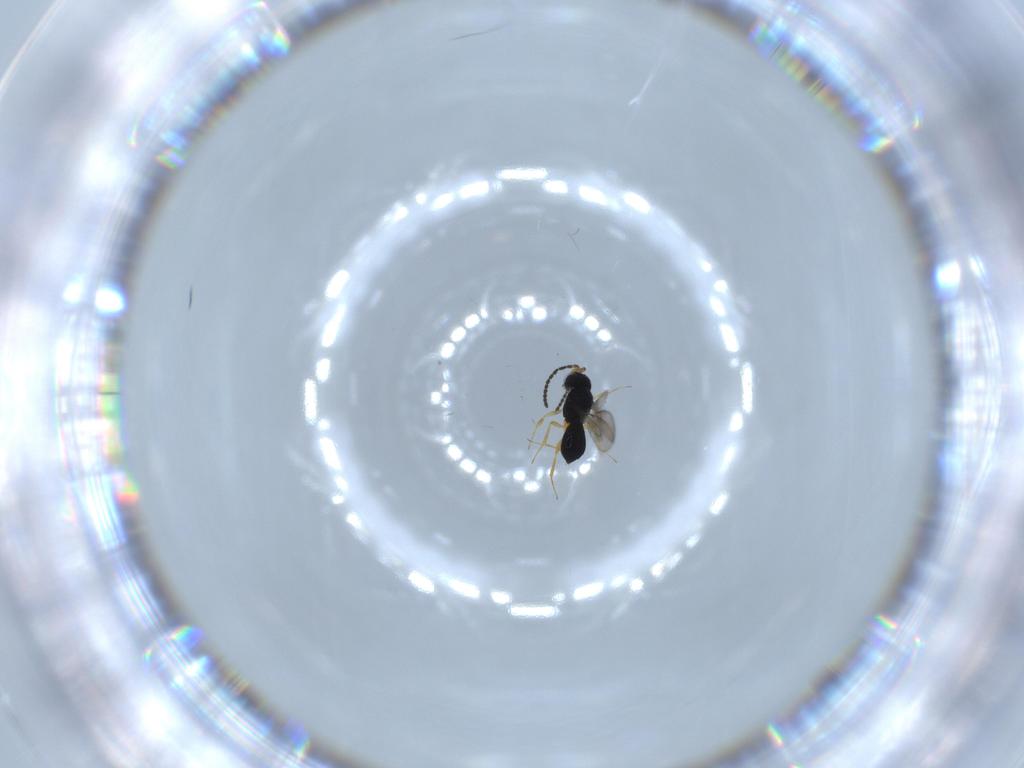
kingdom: Animalia
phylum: Arthropoda
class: Insecta
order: Hymenoptera
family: Scelionidae
